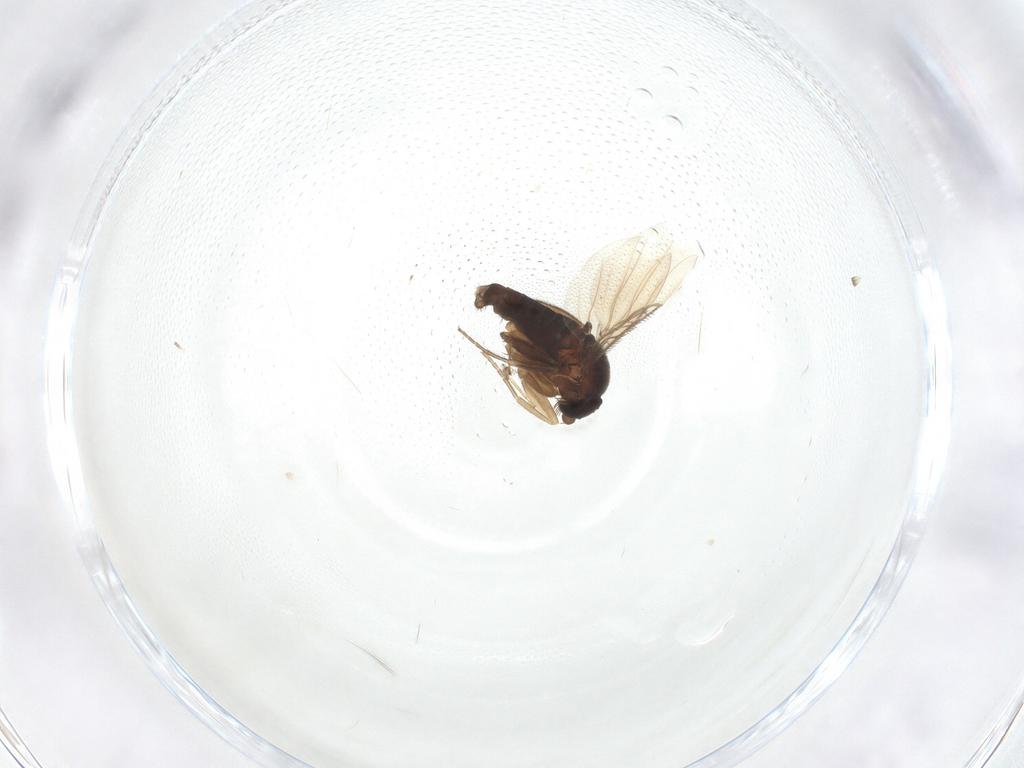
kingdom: Animalia
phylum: Arthropoda
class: Insecta
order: Diptera
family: Phoridae
